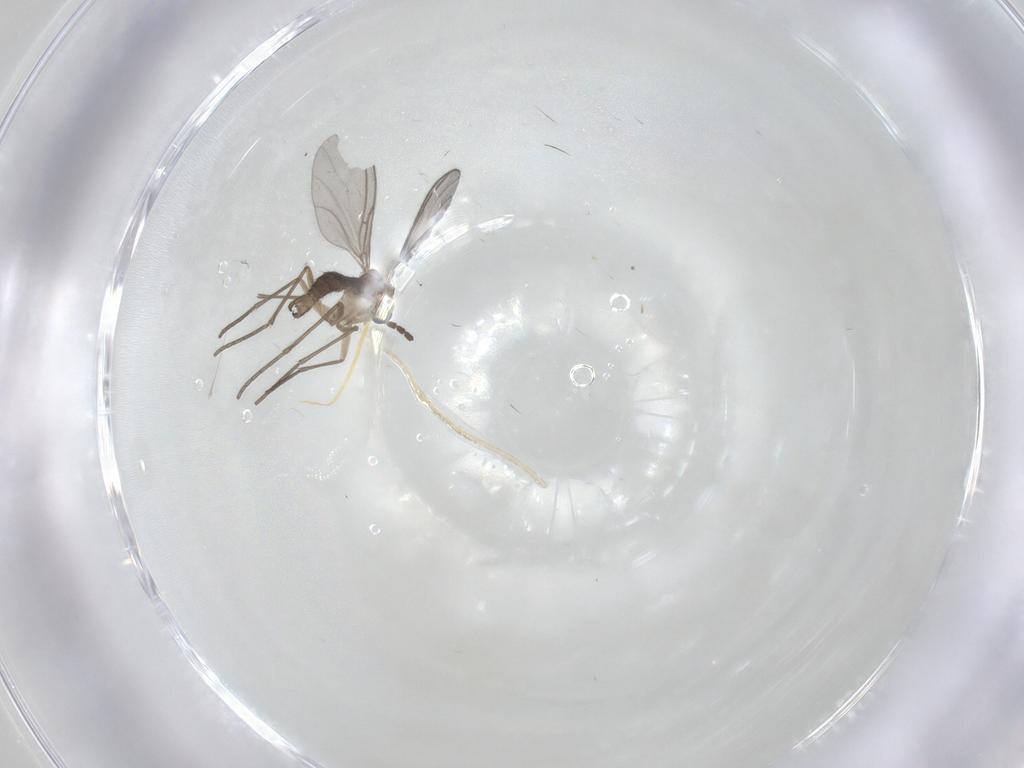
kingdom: Animalia
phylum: Arthropoda
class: Insecta
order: Diptera
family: Sciaridae
